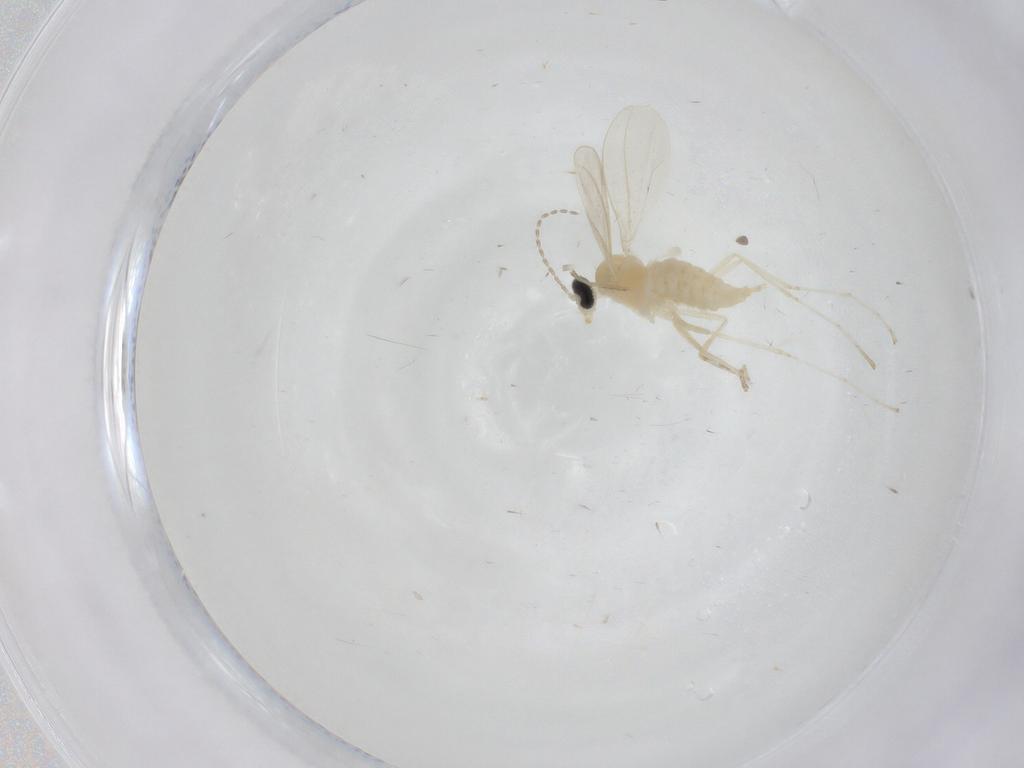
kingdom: Animalia
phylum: Arthropoda
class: Insecta
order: Diptera
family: Cecidomyiidae
